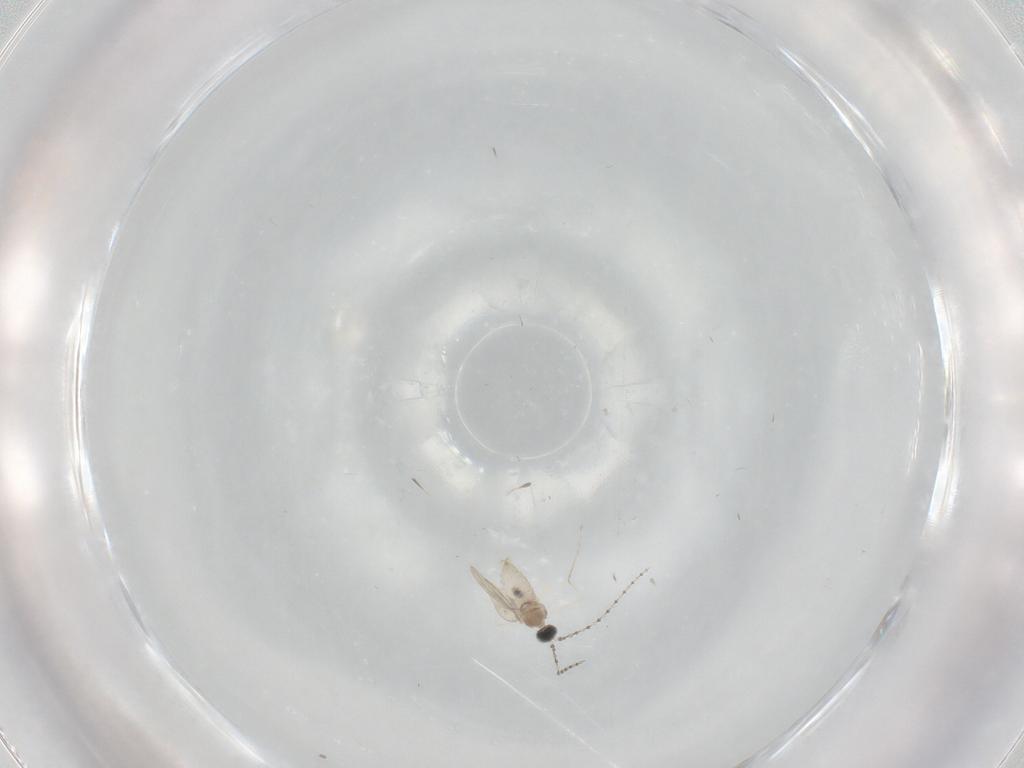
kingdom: Animalia
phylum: Arthropoda
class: Insecta
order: Diptera
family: Cecidomyiidae
